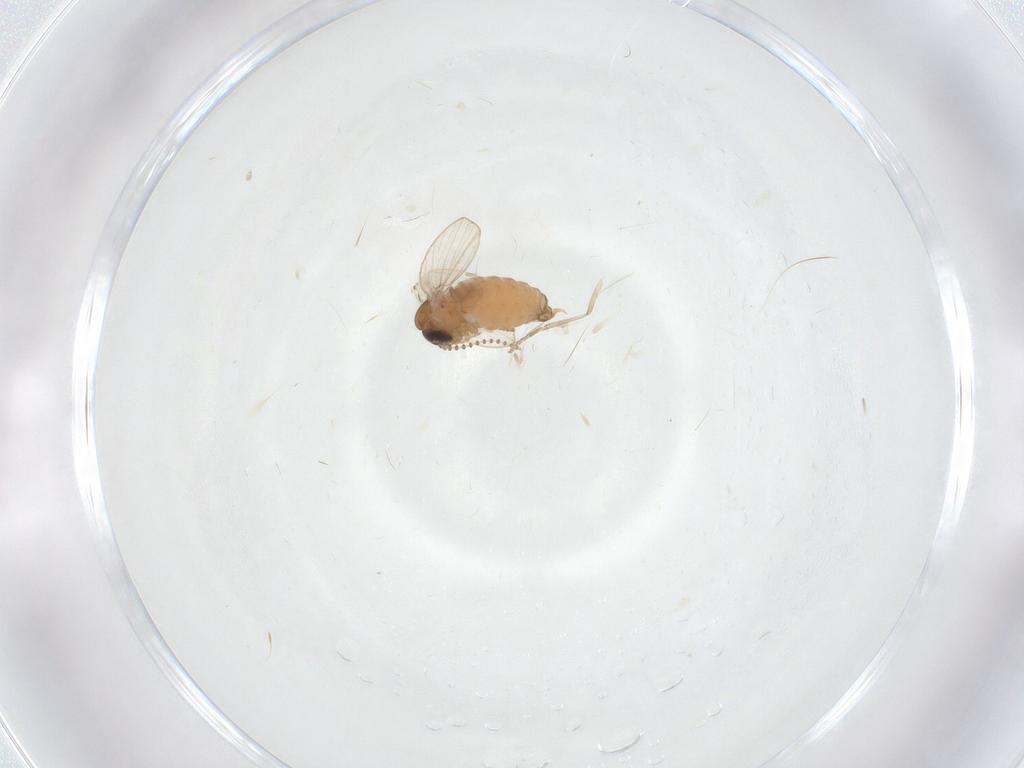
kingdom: Animalia
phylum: Arthropoda
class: Insecta
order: Diptera
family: Psychodidae
